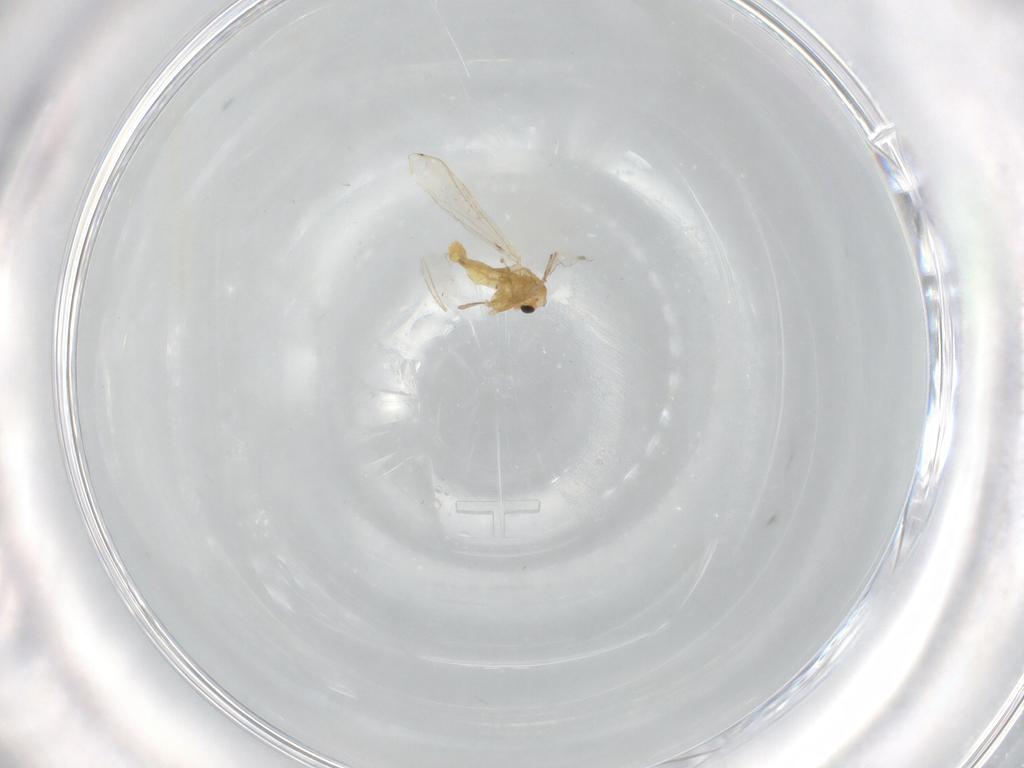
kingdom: Animalia
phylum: Arthropoda
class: Insecta
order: Diptera
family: Chironomidae
